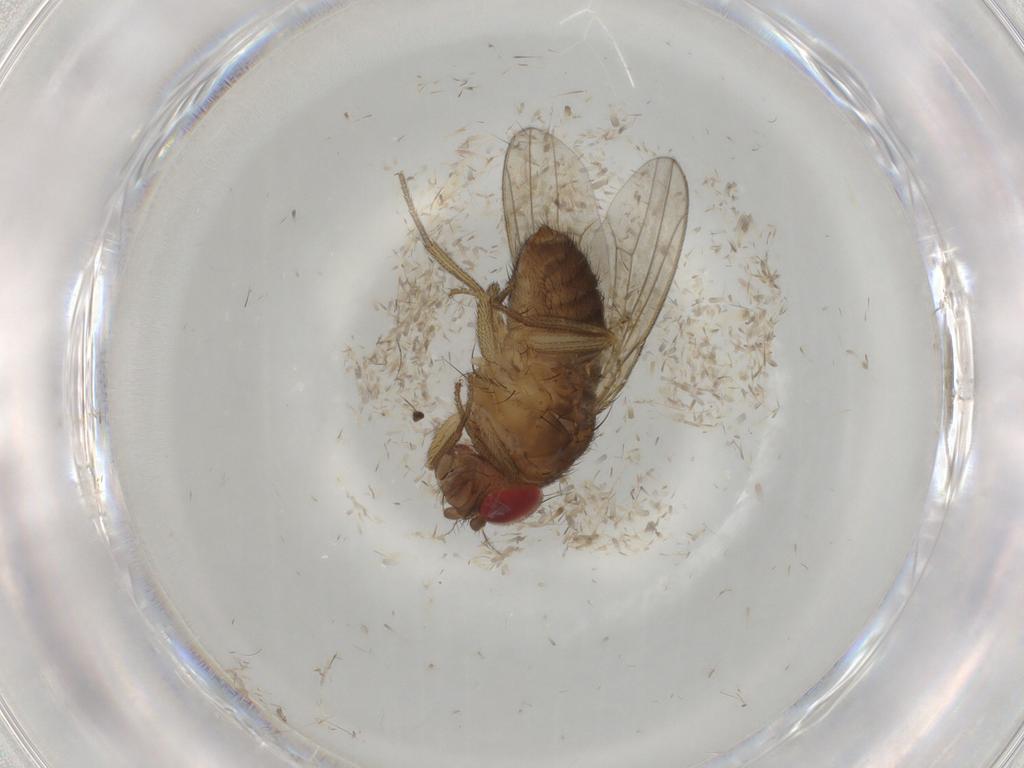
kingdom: Animalia
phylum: Arthropoda
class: Insecta
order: Diptera
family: Drosophilidae
